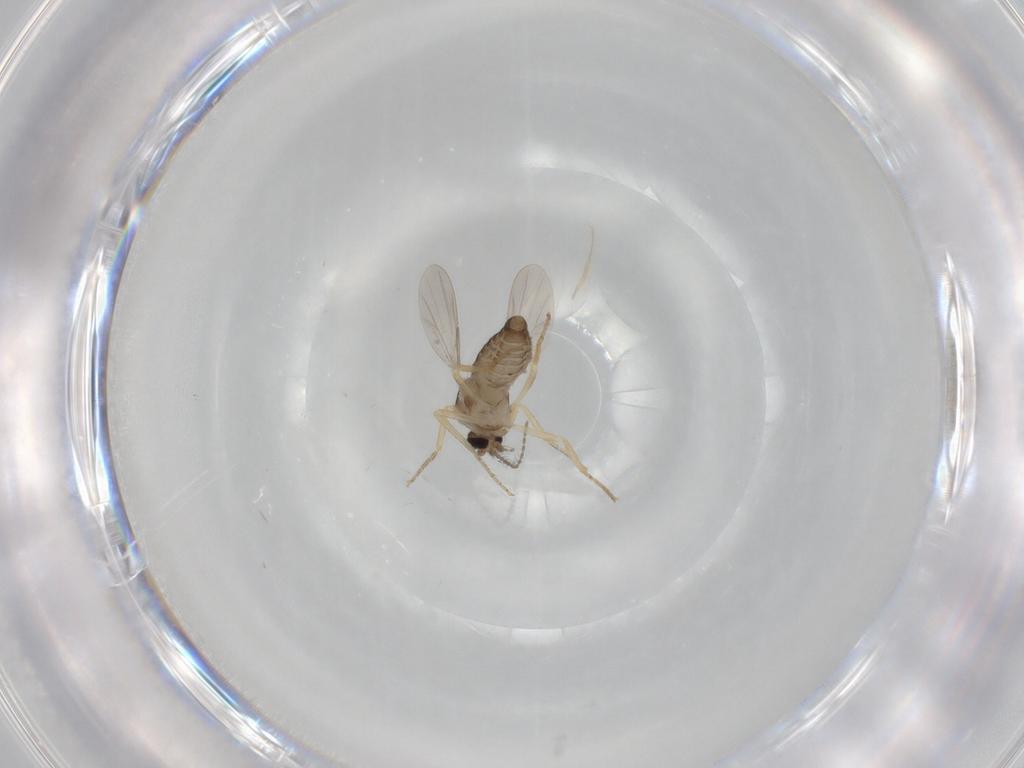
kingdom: Animalia
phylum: Arthropoda
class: Insecta
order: Diptera
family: Ceratopogonidae
